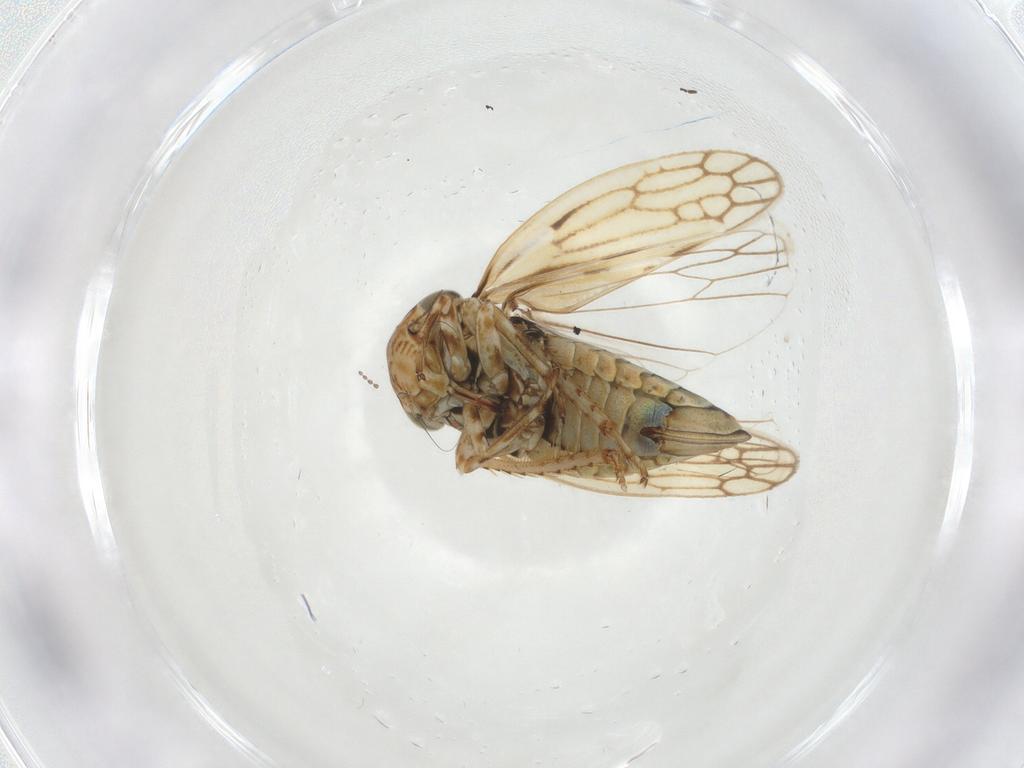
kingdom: Animalia
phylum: Arthropoda
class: Insecta
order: Hemiptera
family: Cicadellidae
